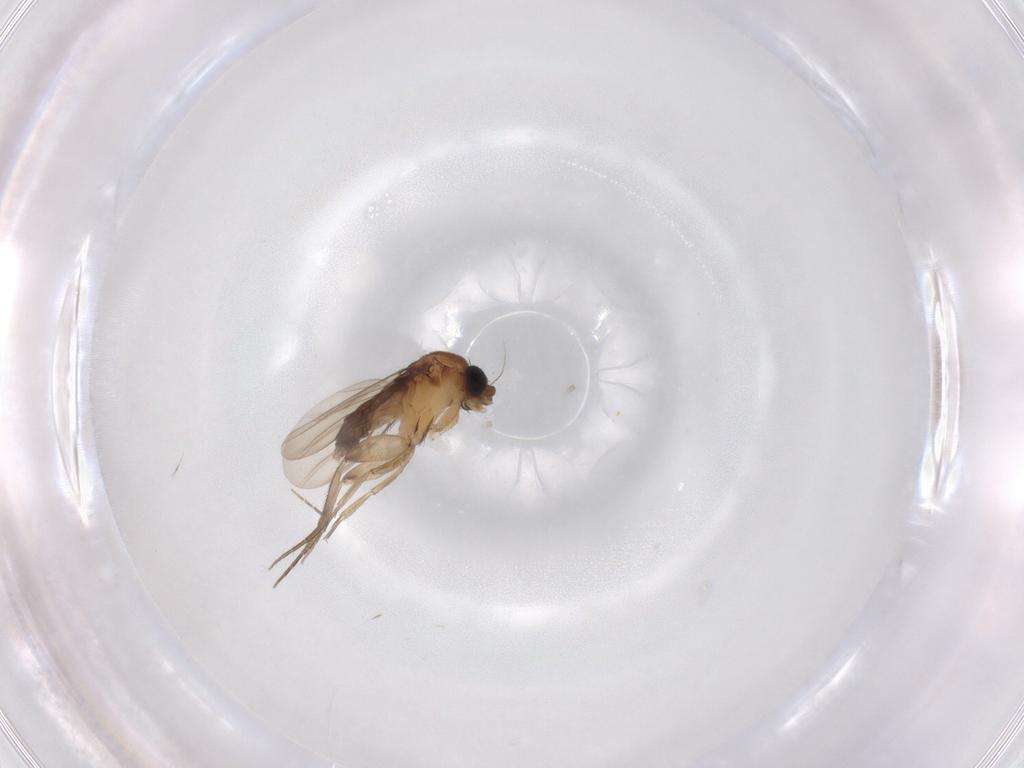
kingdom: Animalia
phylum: Arthropoda
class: Insecta
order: Diptera
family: Phoridae
